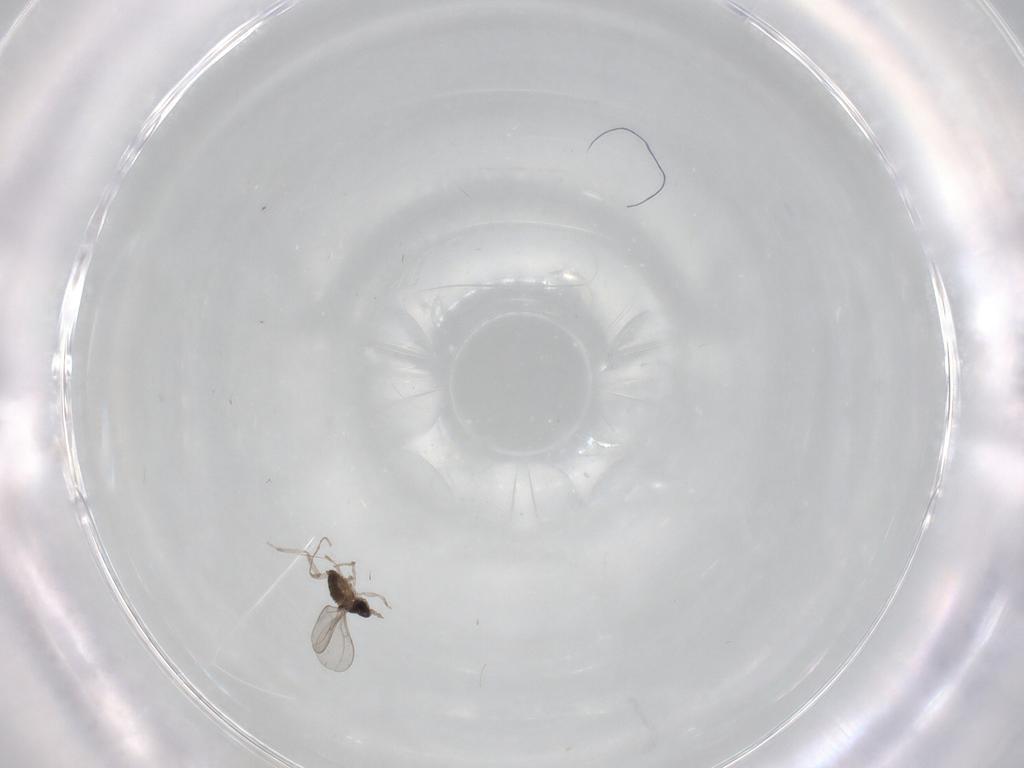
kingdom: Animalia
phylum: Arthropoda
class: Insecta
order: Diptera
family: Cecidomyiidae
